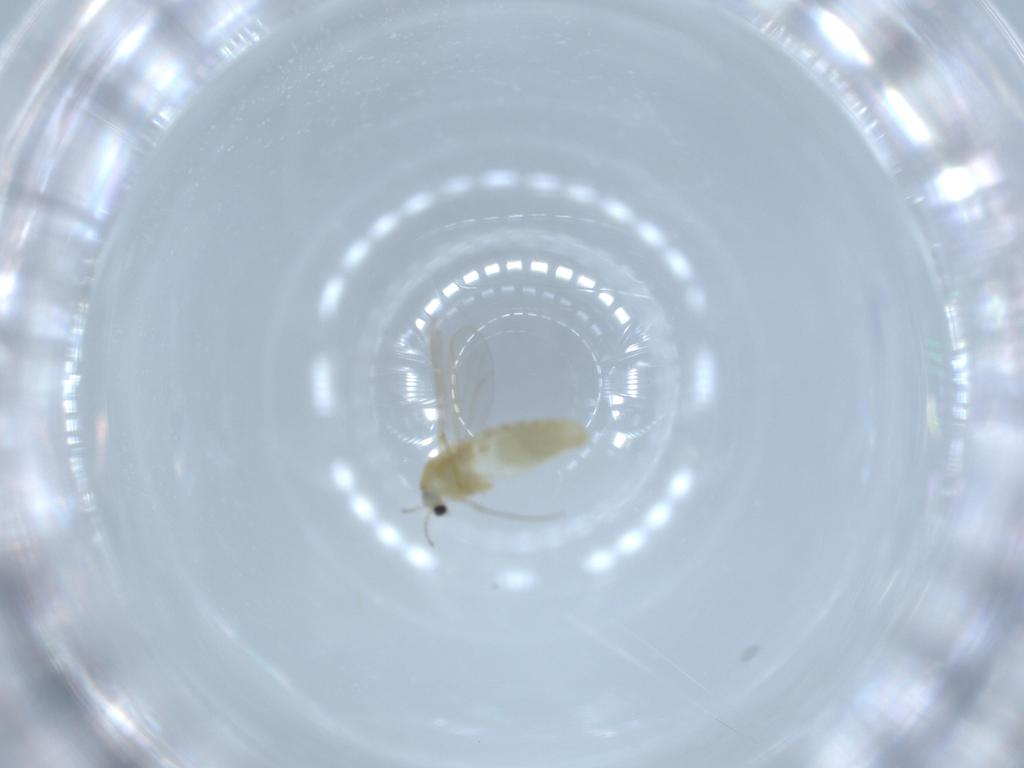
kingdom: Animalia
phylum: Arthropoda
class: Insecta
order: Diptera
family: Chironomidae
